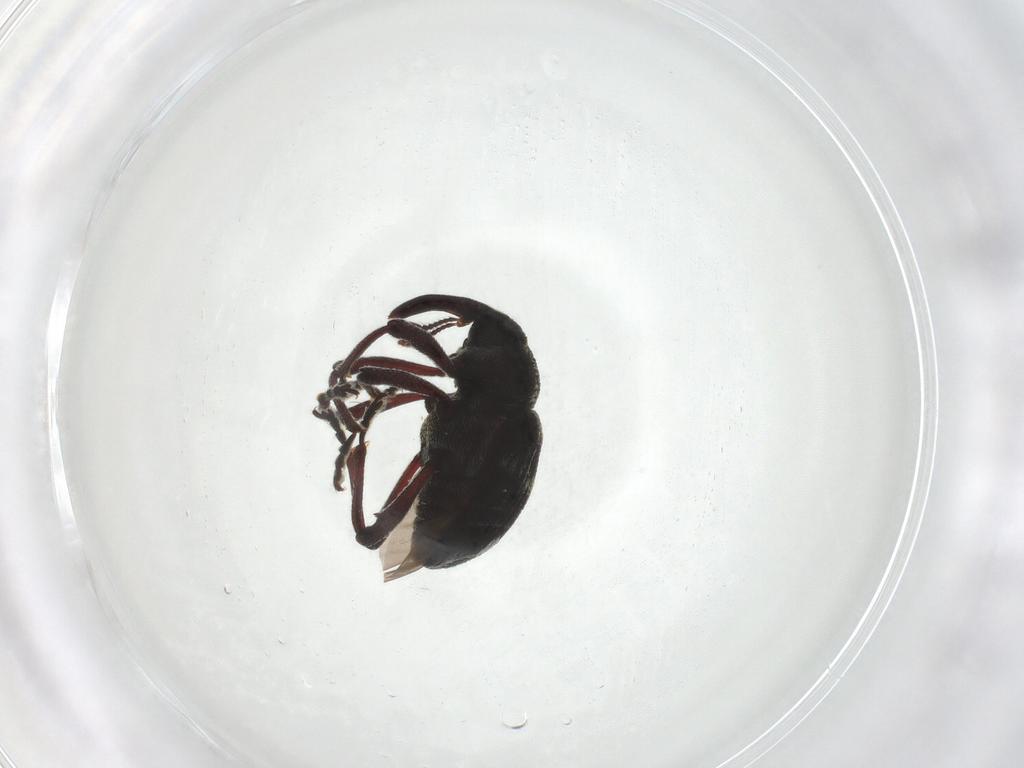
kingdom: Animalia
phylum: Arthropoda
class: Insecta
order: Coleoptera
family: Curculionidae
